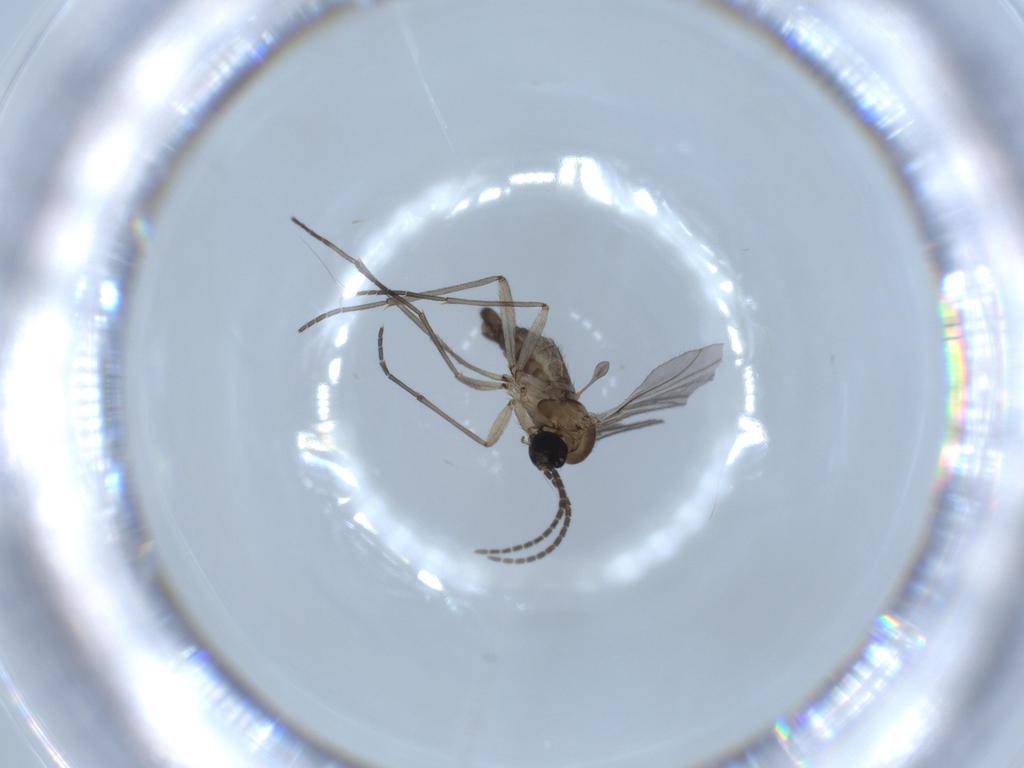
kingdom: Animalia
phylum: Arthropoda
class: Insecta
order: Diptera
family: Sciaridae
